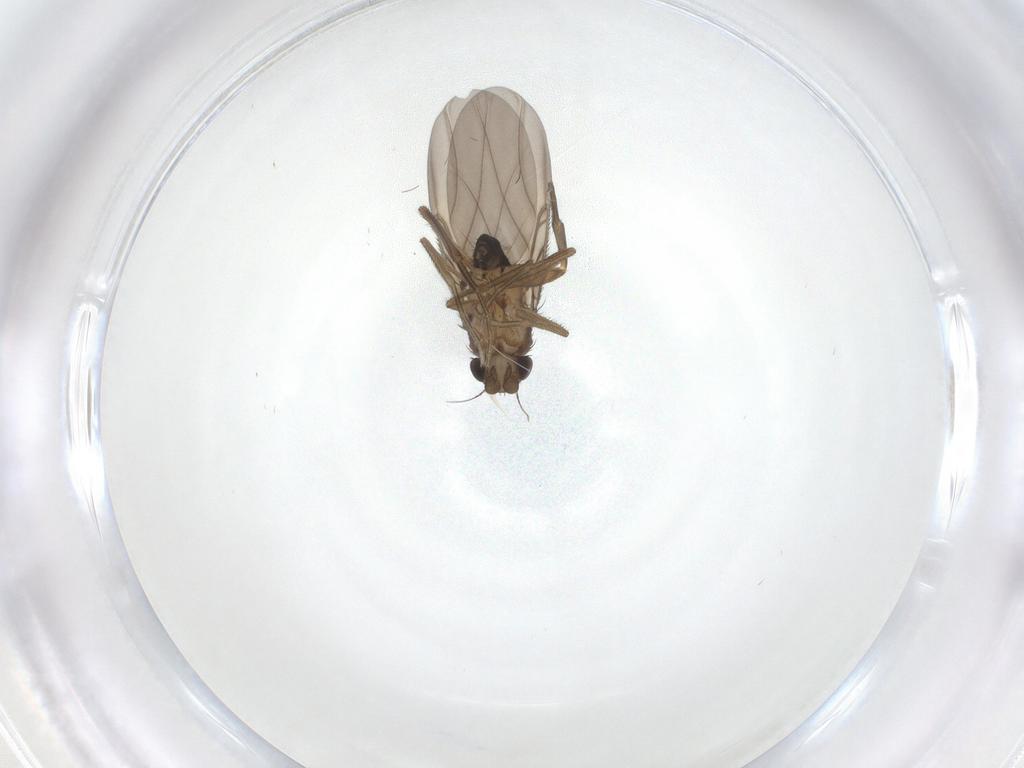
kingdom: Animalia
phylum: Arthropoda
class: Insecta
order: Diptera
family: Phoridae
